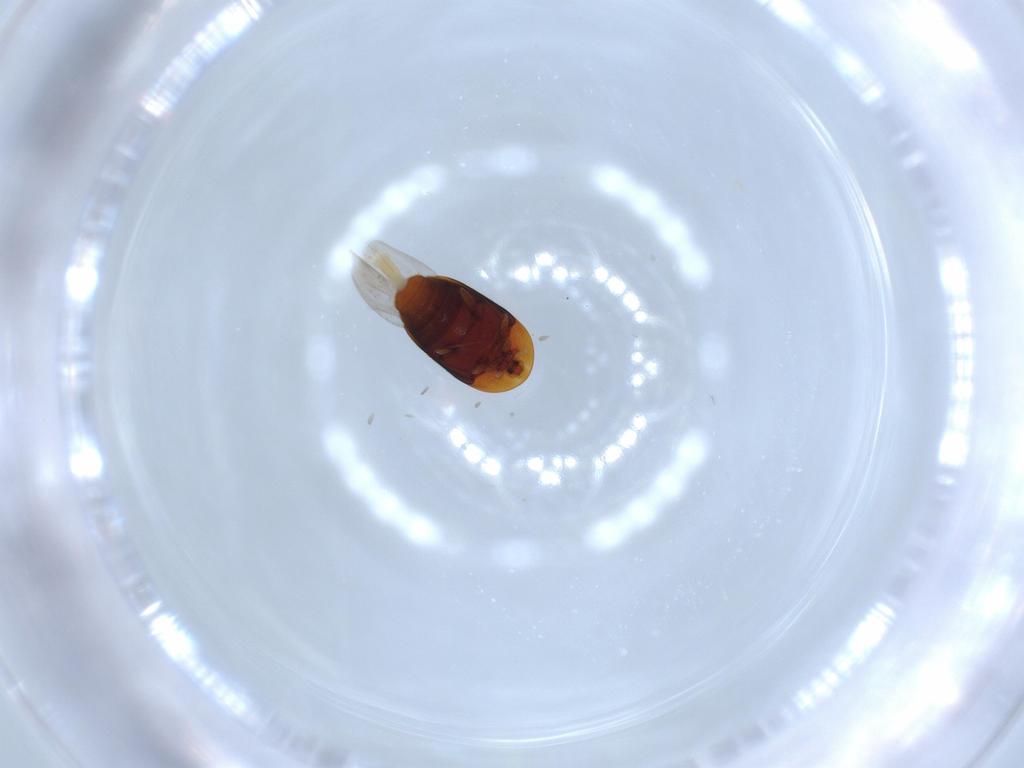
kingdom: Animalia
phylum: Arthropoda
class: Insecta
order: Coleoptera
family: Corylophidae
